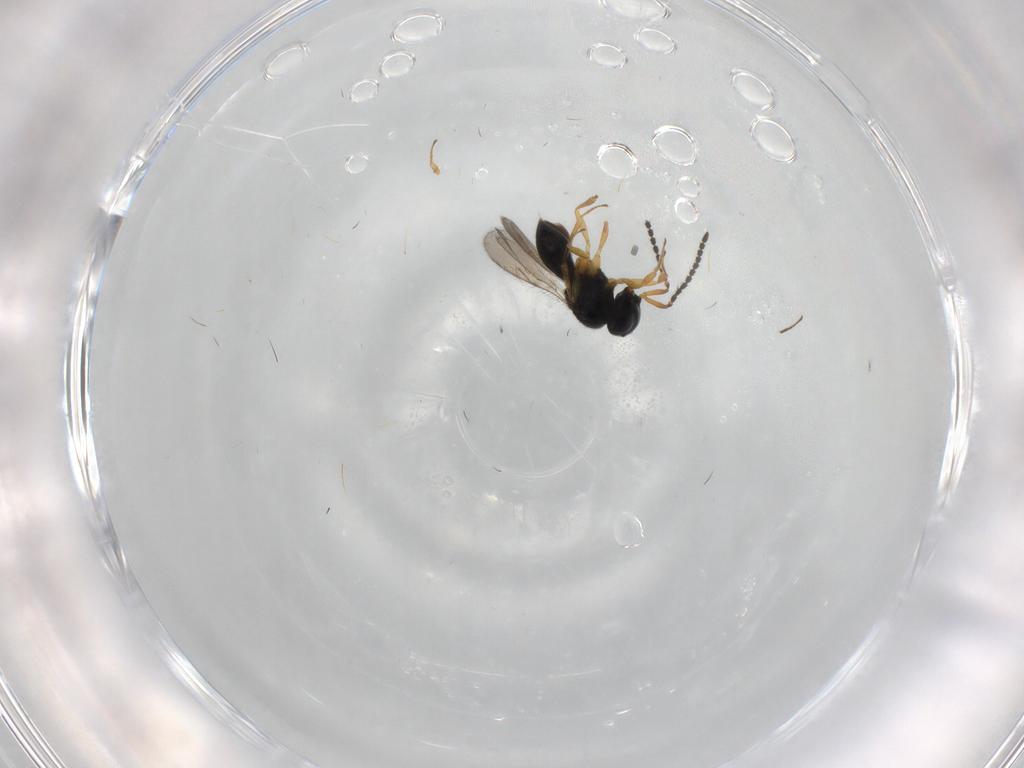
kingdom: Animalia
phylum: Arthropoda
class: Insecta
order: Hymenoptera
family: Scelionidae
